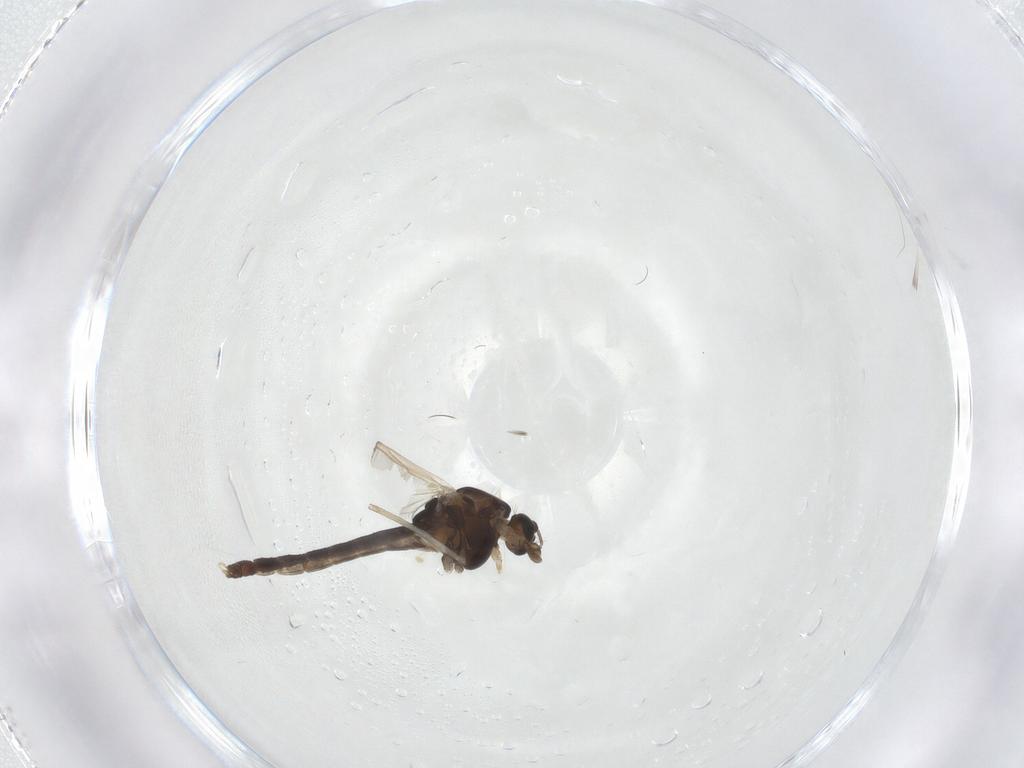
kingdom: Animalia
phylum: Arthropoda
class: Insecta
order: Diptera
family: Chironomidae
